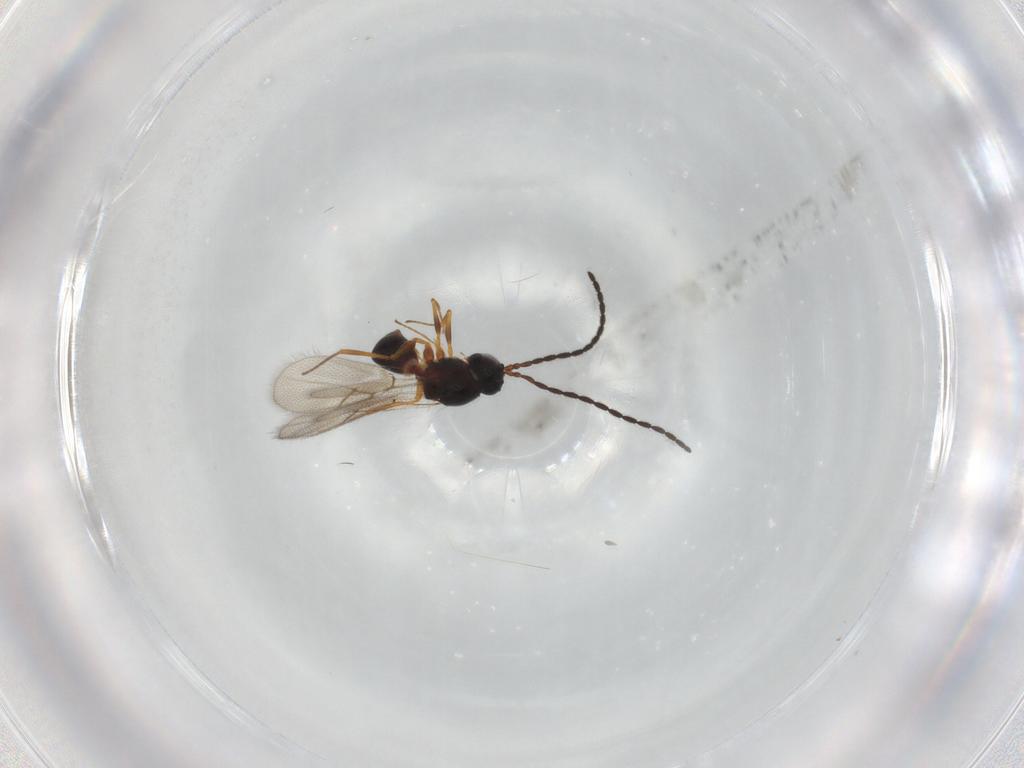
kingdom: Animalia
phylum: Arthropoda
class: Insecta
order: Hymenoptera
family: Figitidae
